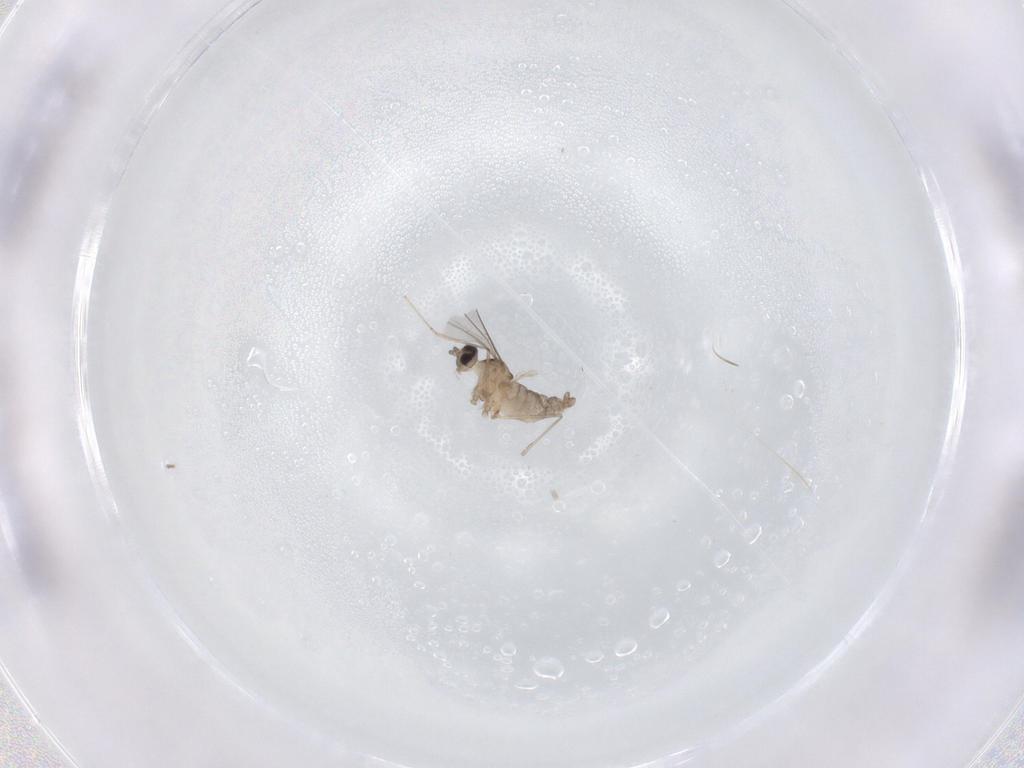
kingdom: Animalia
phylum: Arthropoda
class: Insecta
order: Diptera
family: Cecidomyiidae
